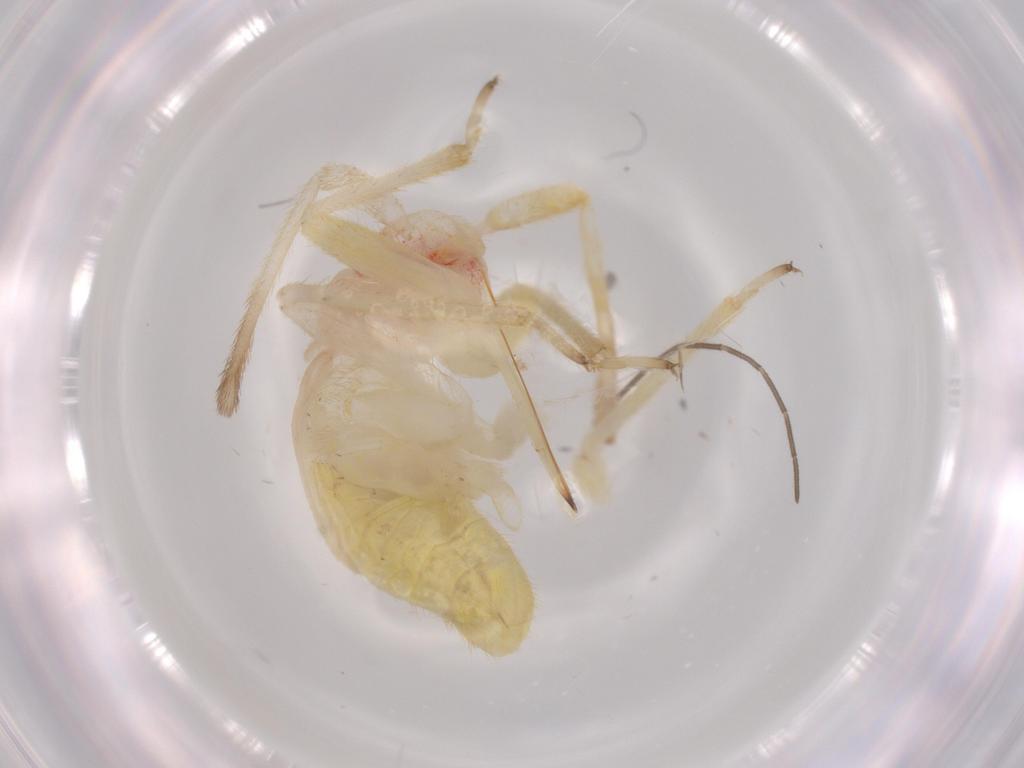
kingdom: Animalia
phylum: Arthropoda
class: Insecta
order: Hemiptera
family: Miridae
